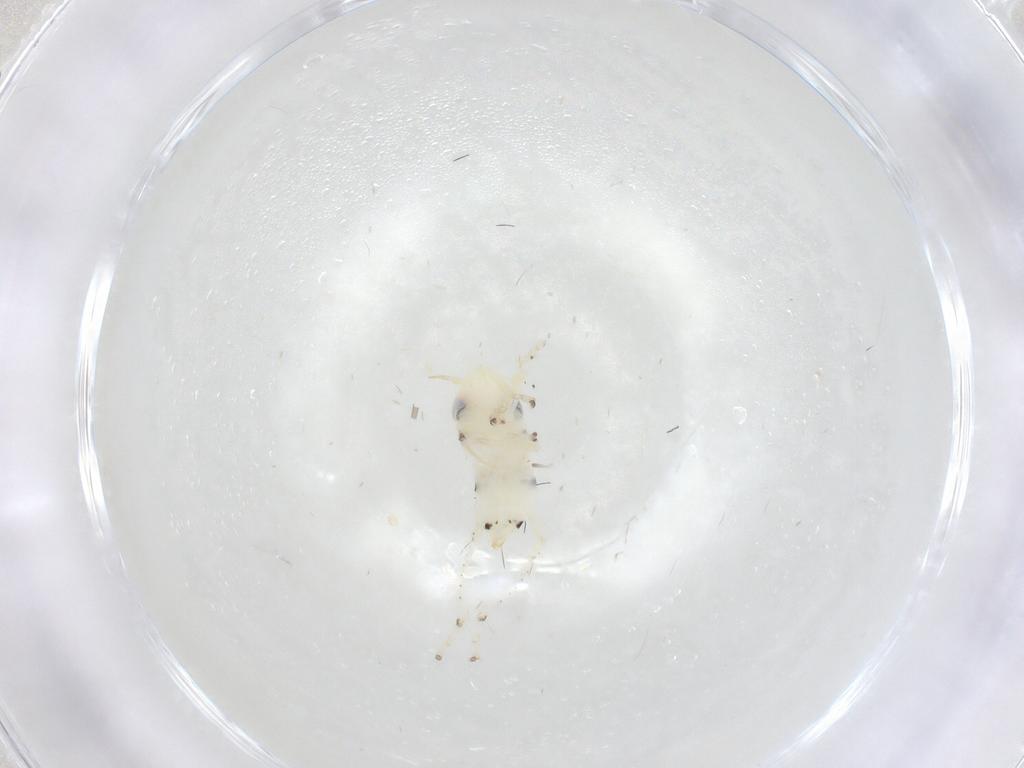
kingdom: Animalia
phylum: Arthropoda
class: Insecta
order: Hemiptera
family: Cicadellidae
